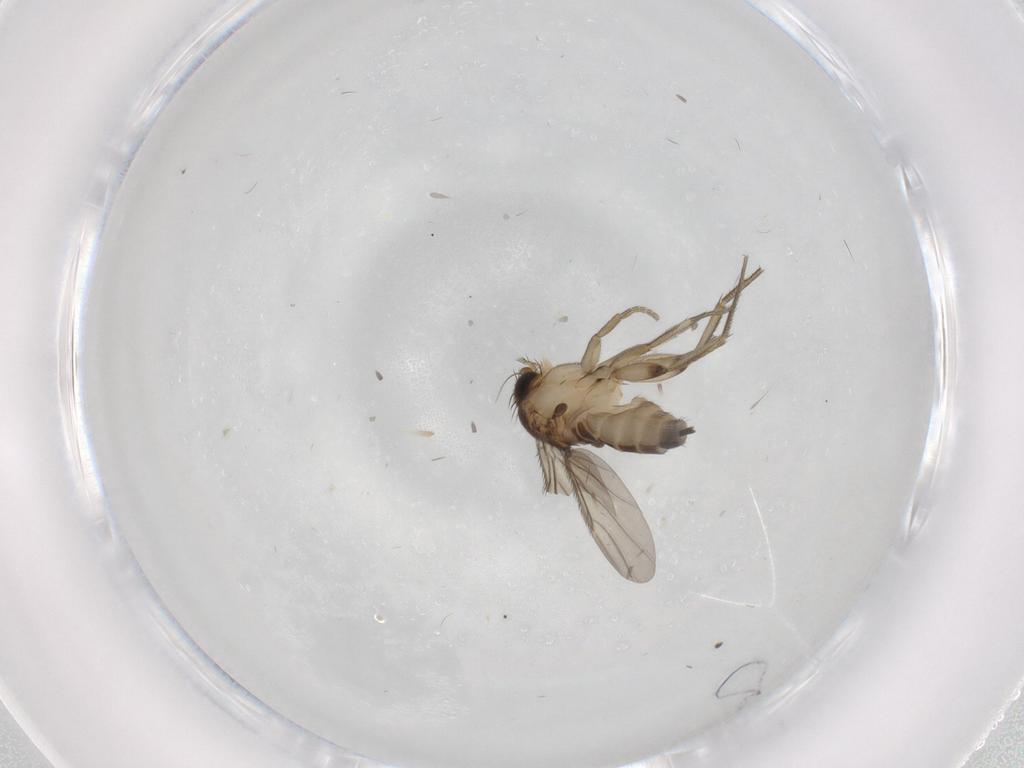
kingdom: Animalia
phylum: Arthropoda
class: Insecta
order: Diptera
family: Phoridae
